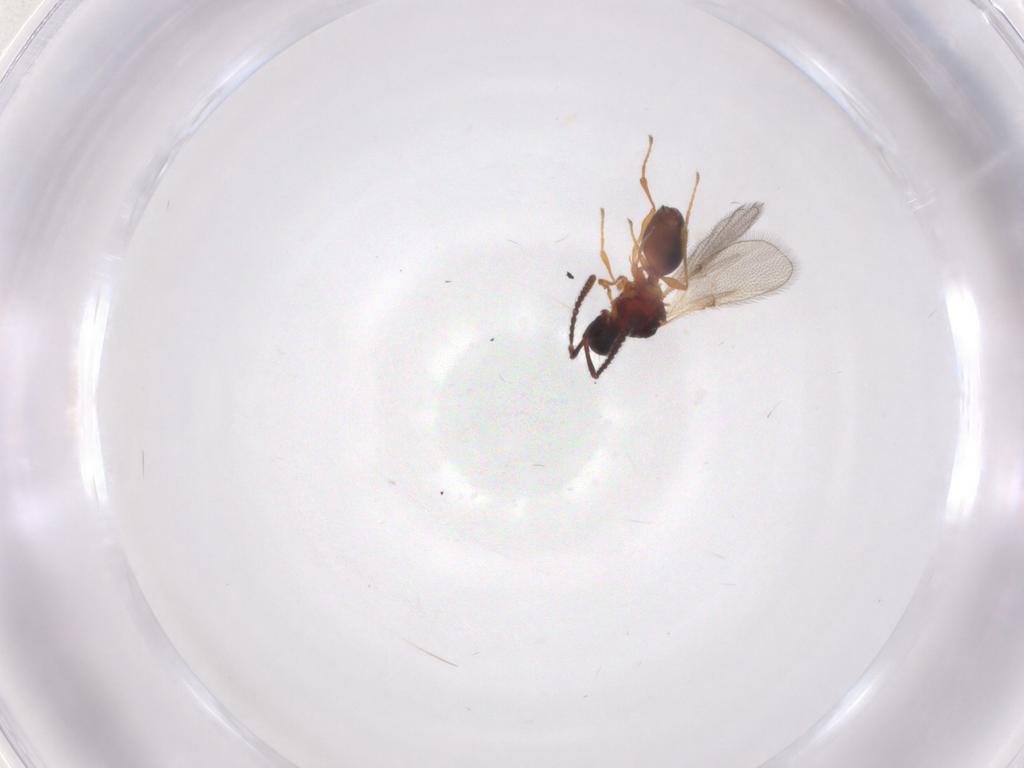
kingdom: Animalia
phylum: Arthropoda
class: Insecta
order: Hymenoptera
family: Diapriidae
